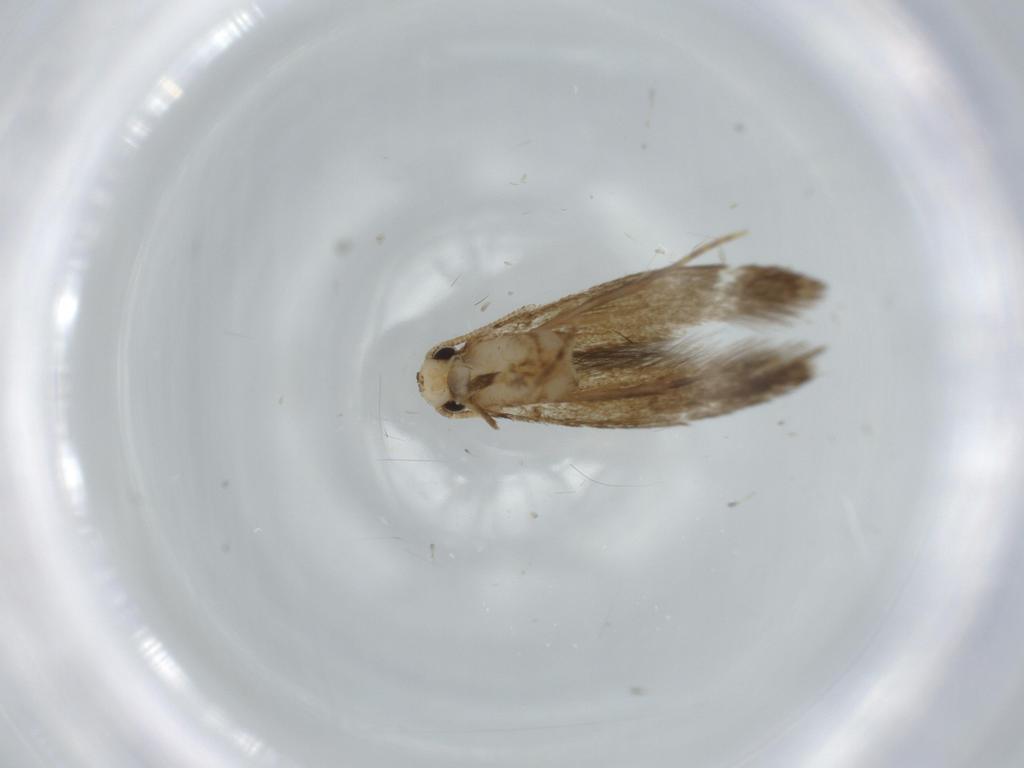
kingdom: Animalia
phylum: Arthropoda
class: Insecta
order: Lepidoptera
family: Tineidae
